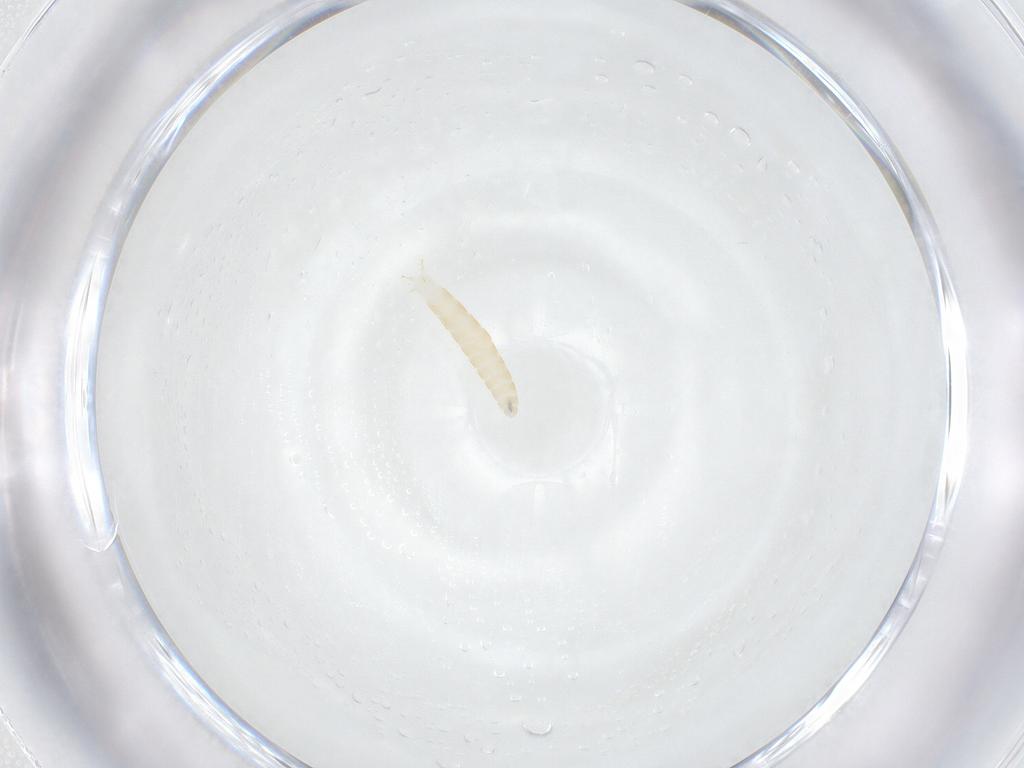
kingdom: Animalia
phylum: Arthropoda
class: Insecta
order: Diptera
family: Tachinidae
